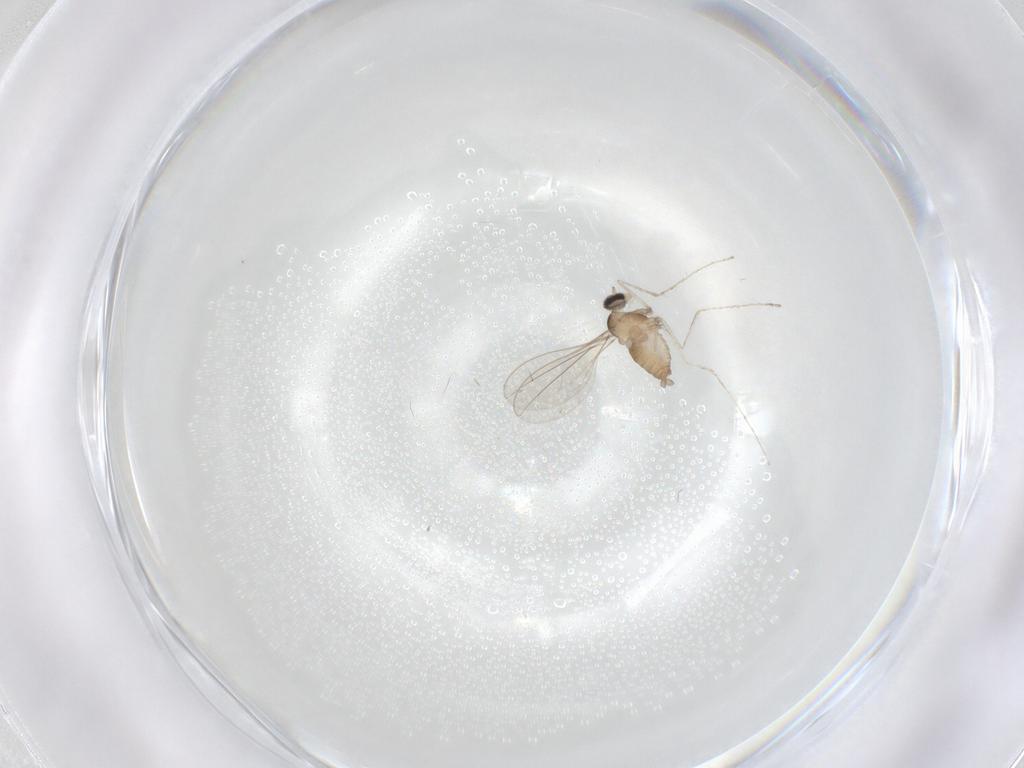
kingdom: Animalia
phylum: Arthropoda
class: Insecta
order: Diptera
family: Cecidomyiidae
